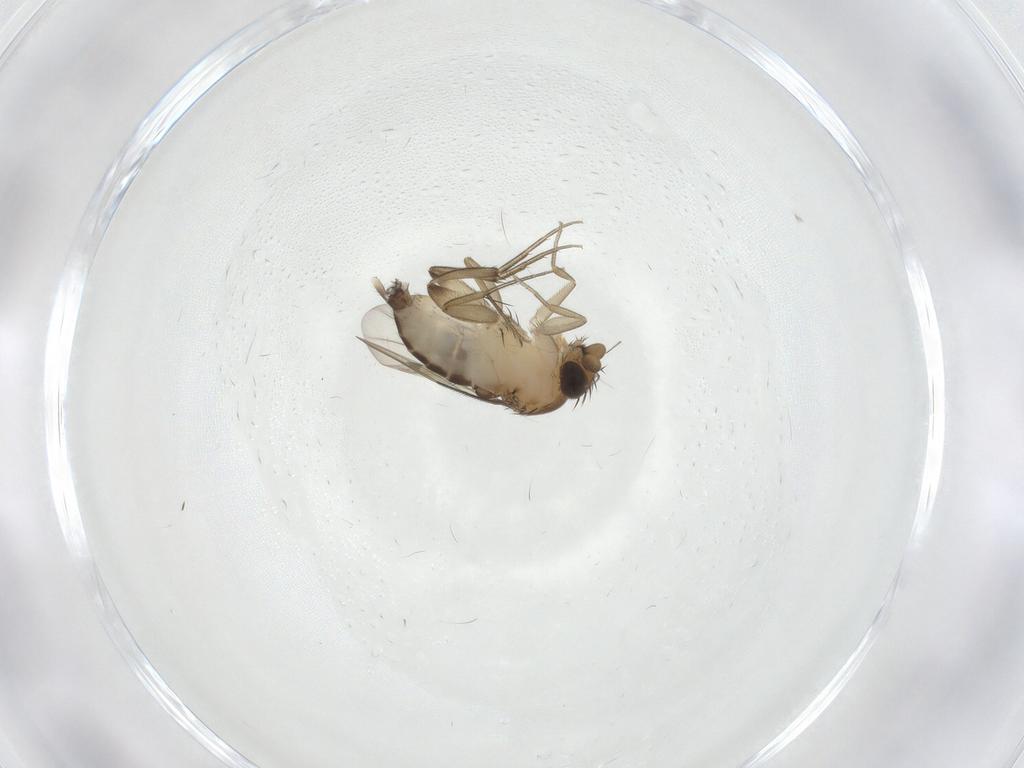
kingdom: Animalia
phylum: Arthropoda
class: Insecta
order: Diptera
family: Phoridae
